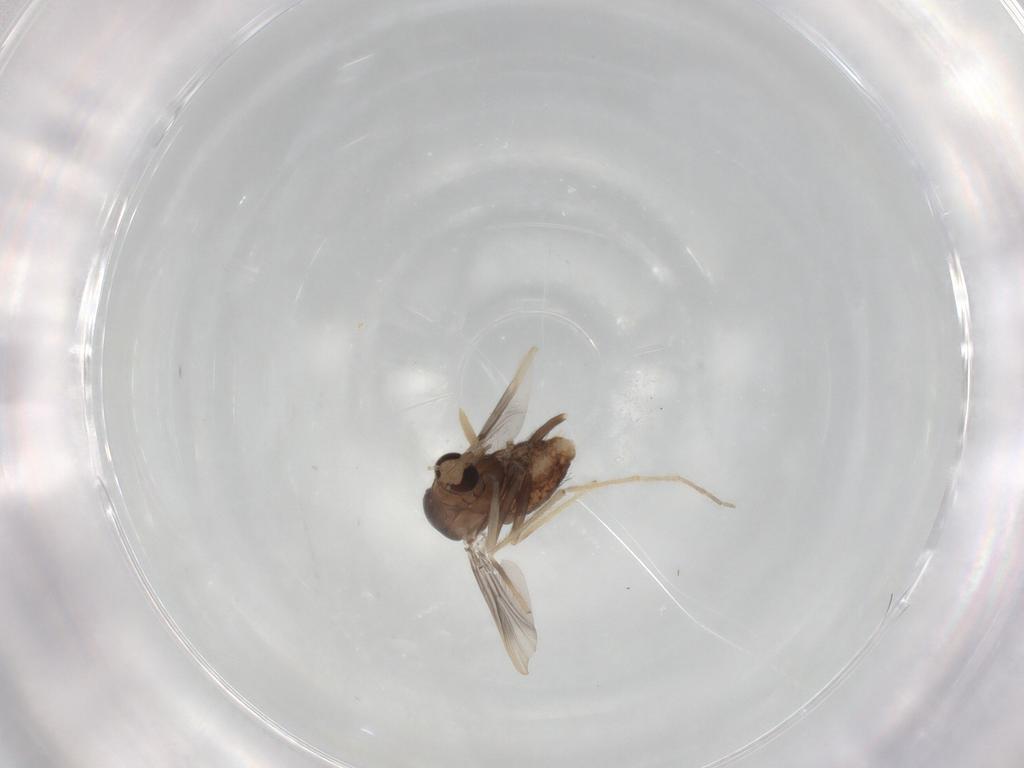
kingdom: Animalia
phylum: Arthropoda
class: Insecta
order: Diptera
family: Chironomidae
